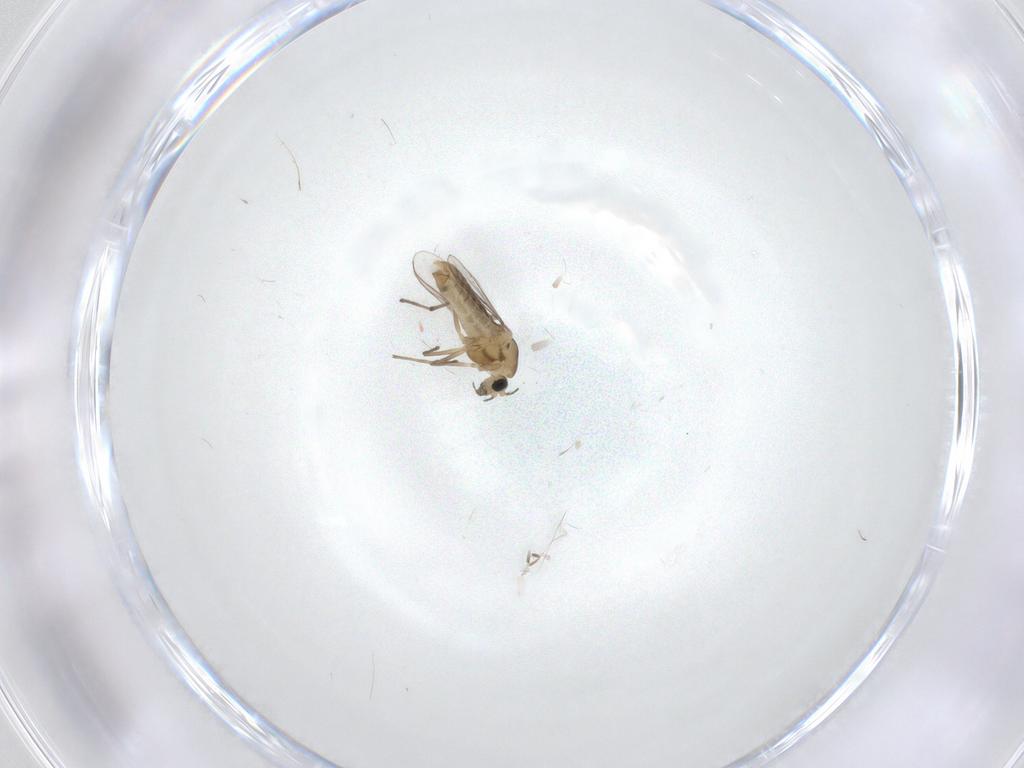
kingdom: Animalia
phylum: Arthropoda
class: Insecta
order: Diptera
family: Chironomidae
